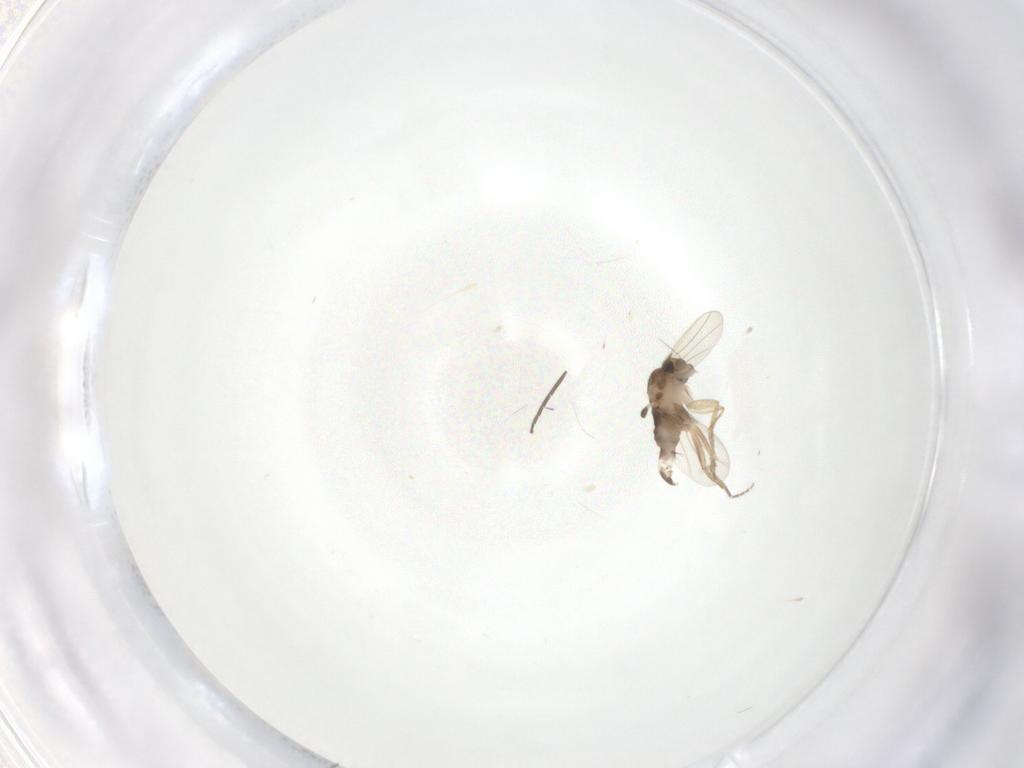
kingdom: Animalia
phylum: Arthropoda
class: Insecta
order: Diptera
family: Phoridae
